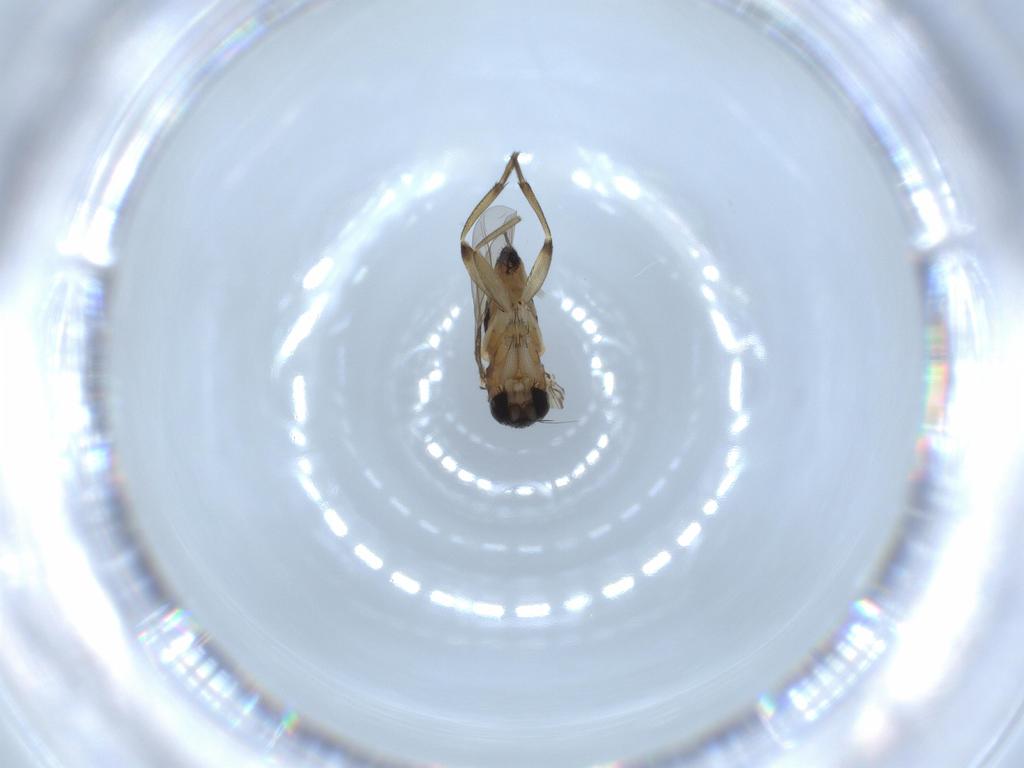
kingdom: Animalia
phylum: Arthropoda
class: Insecta
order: Diptera
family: Phoridae
